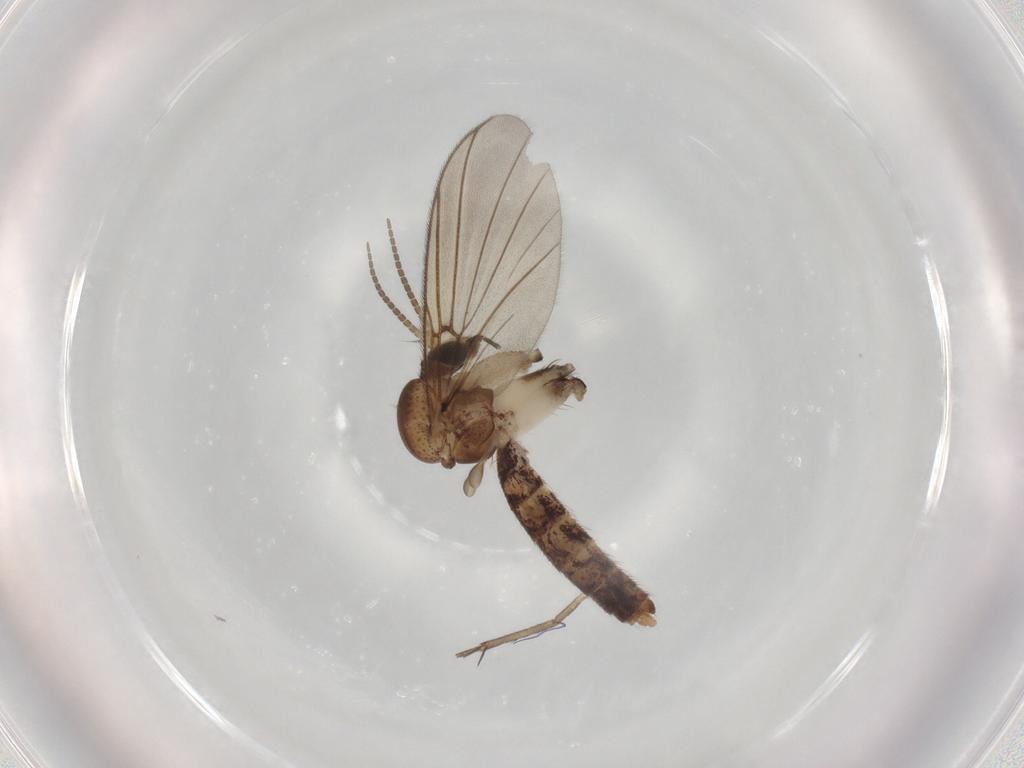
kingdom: Animalia
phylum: Arthropoda
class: Insecta
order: Diptera
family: Mycetophilidae
